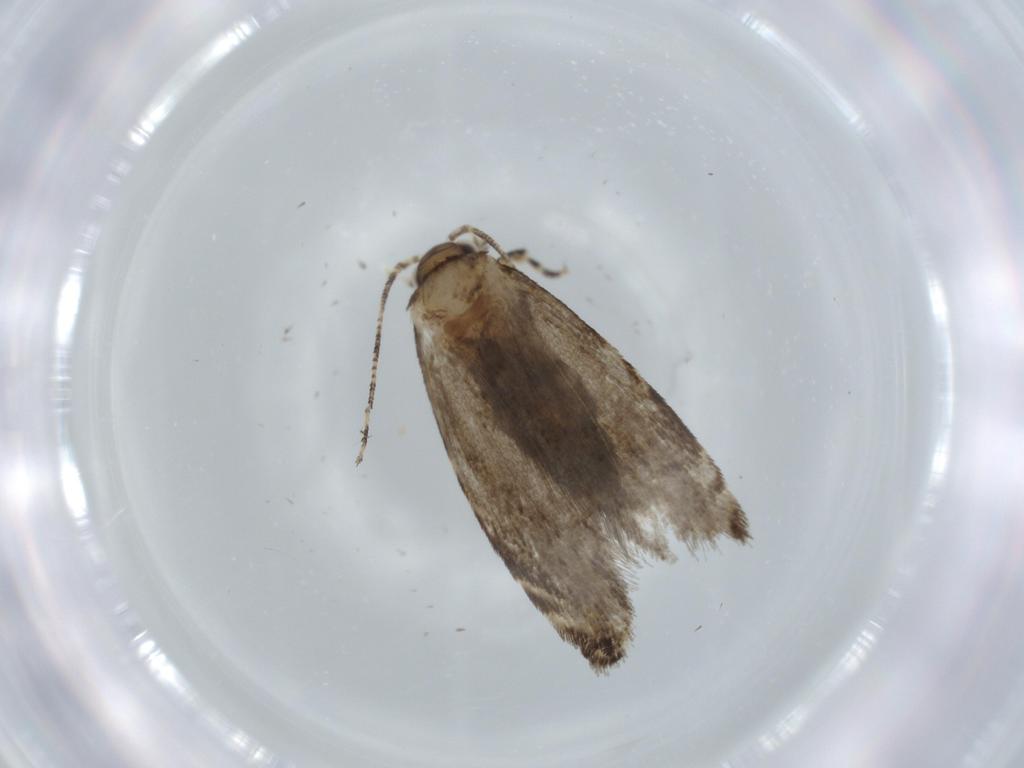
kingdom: Animalia
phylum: Arthropoda
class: Insecta
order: Lepidoptera
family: Tineidae
